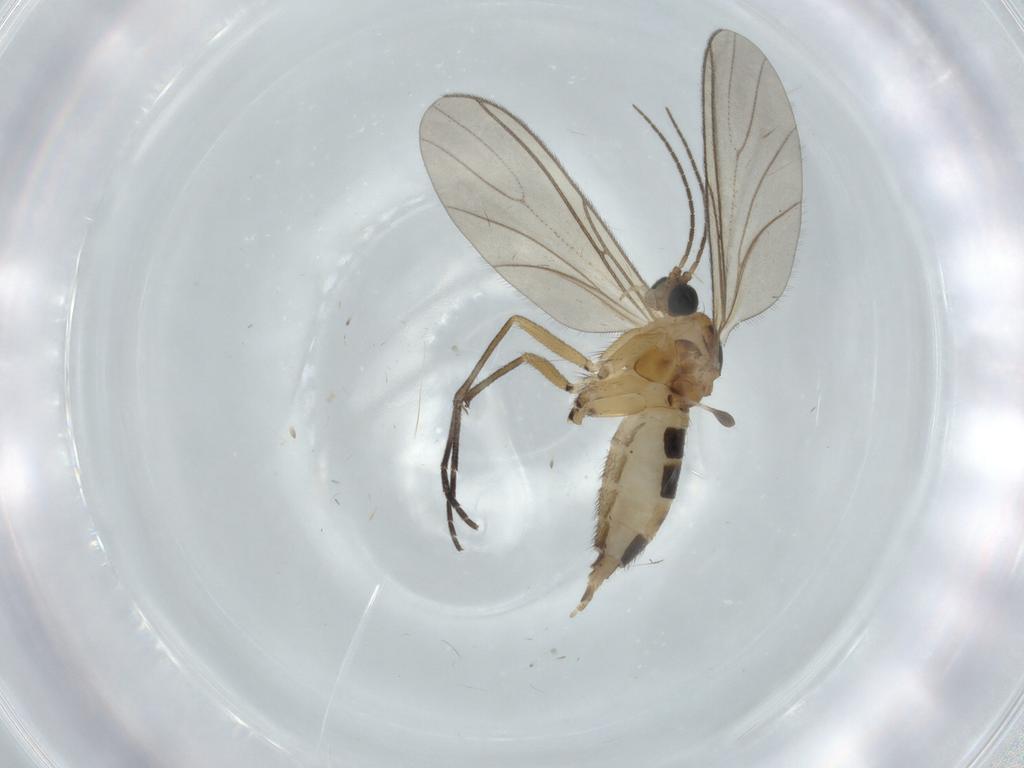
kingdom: Animalia
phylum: Arthropoda
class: Insecta
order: Diptera
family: Sciaridae
